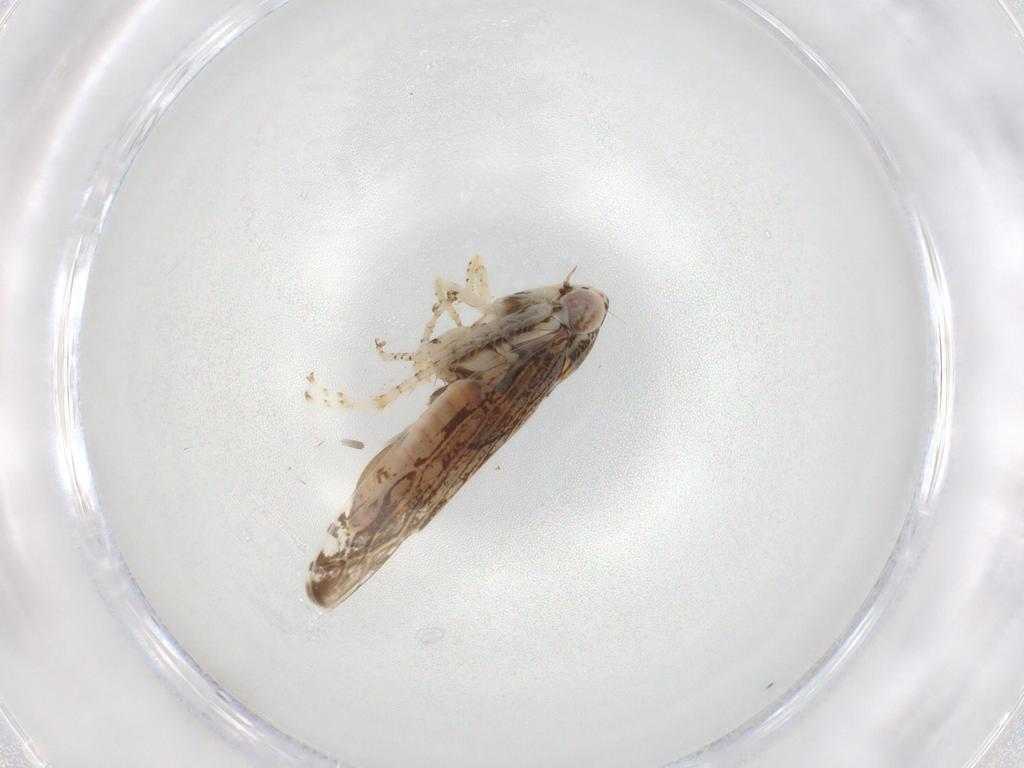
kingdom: Animalia
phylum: Arthropoda
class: Insecta
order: Hemiptera
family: Cicadellidae
